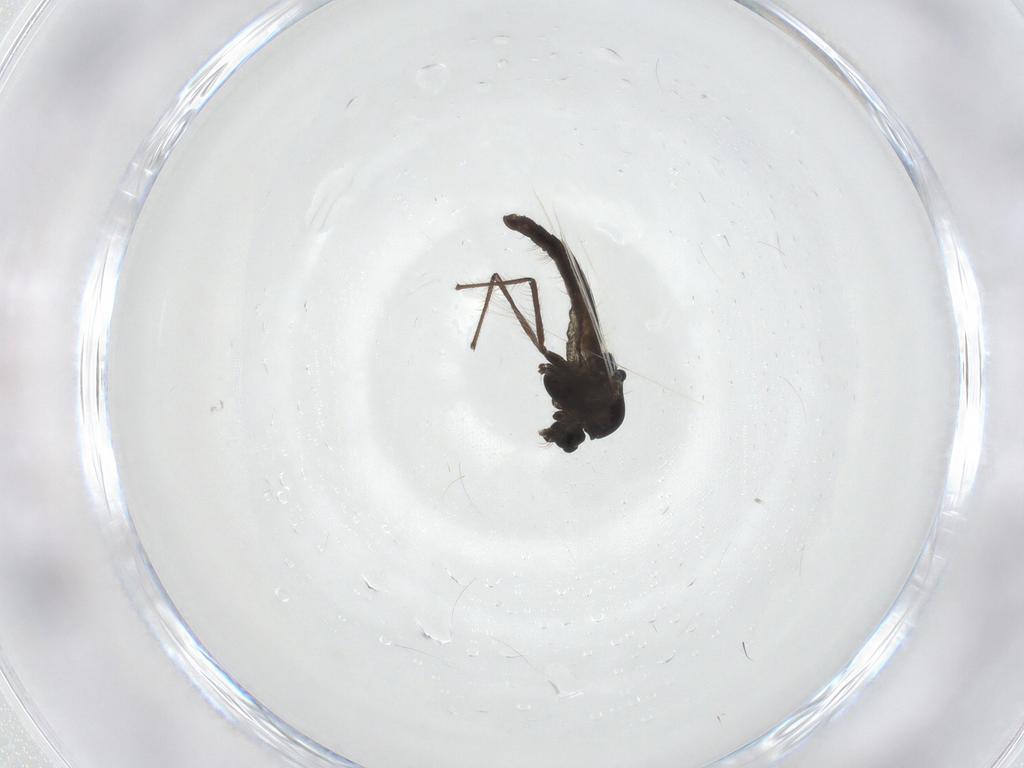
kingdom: Animalia
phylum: Arthropoda
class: Insecta
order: Diptera
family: Chironomidae
